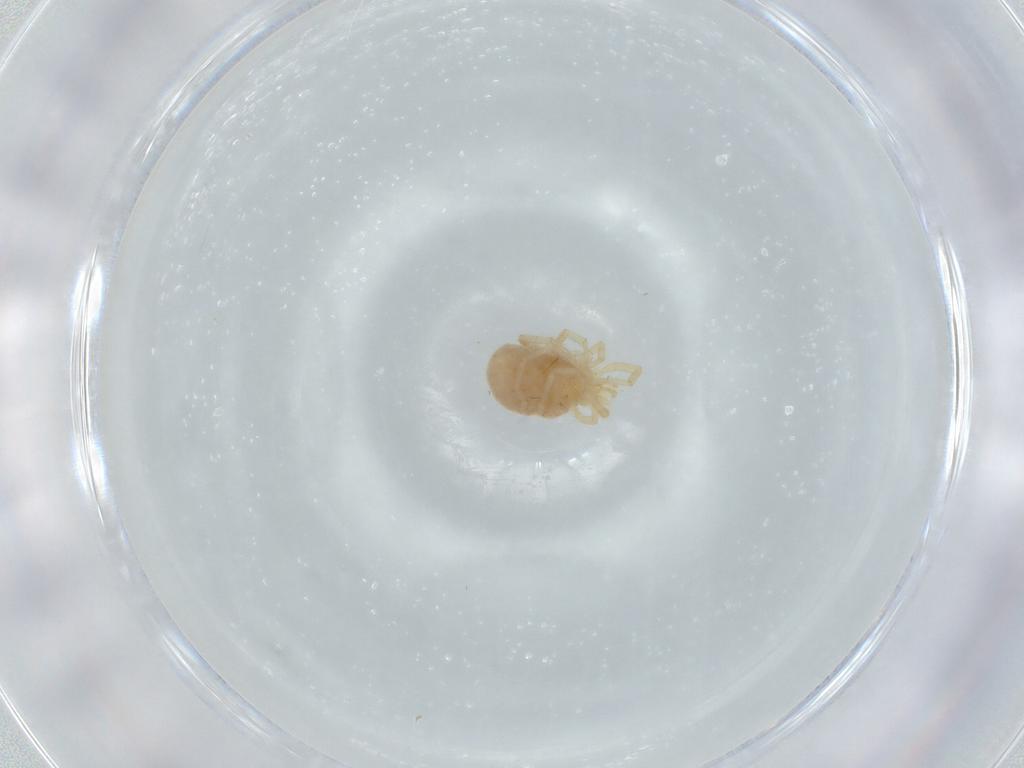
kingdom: Animalia
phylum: Arthropoda
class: Arachnida
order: Trombidiformes
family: Erythraeidae
